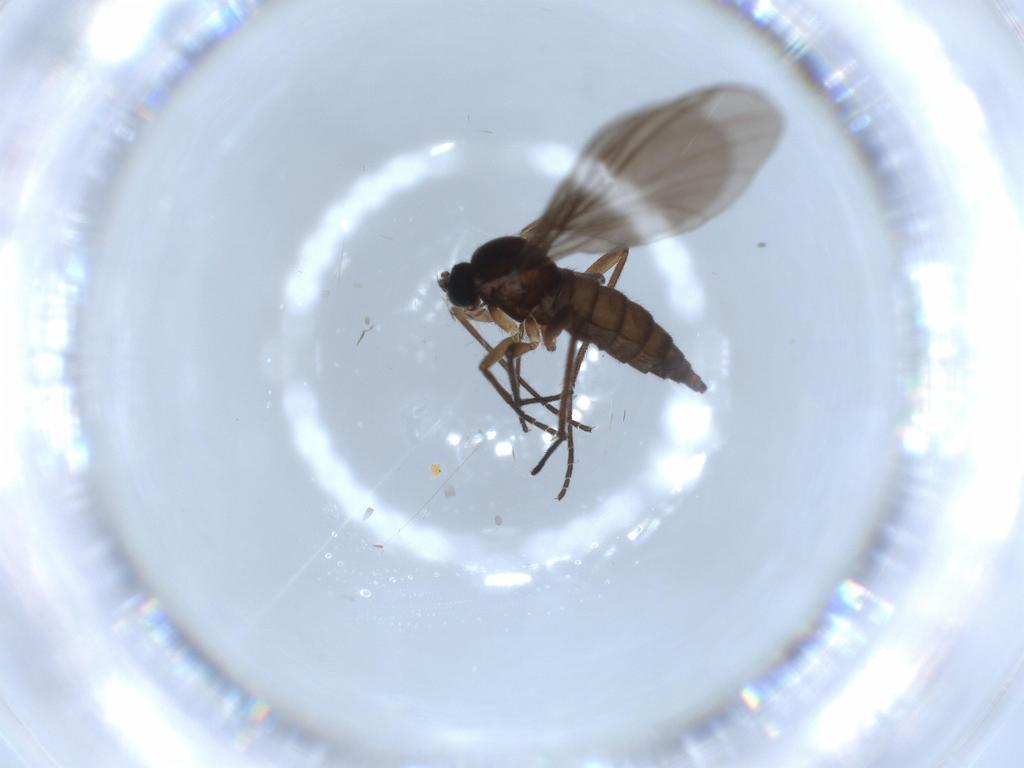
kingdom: Animalia
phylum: Arthropoda
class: Insecta
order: Diptera
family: Sciaridae
